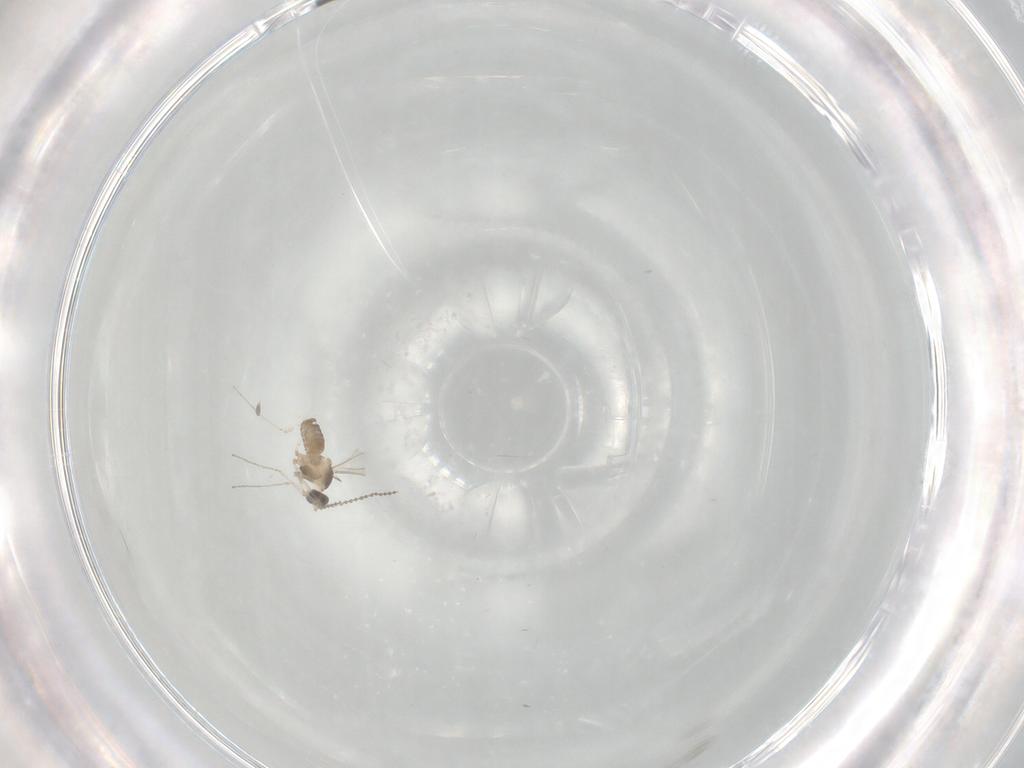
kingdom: Animalia
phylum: Arthropoda
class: Insecta
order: Diptera
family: Cecidomyiidae
